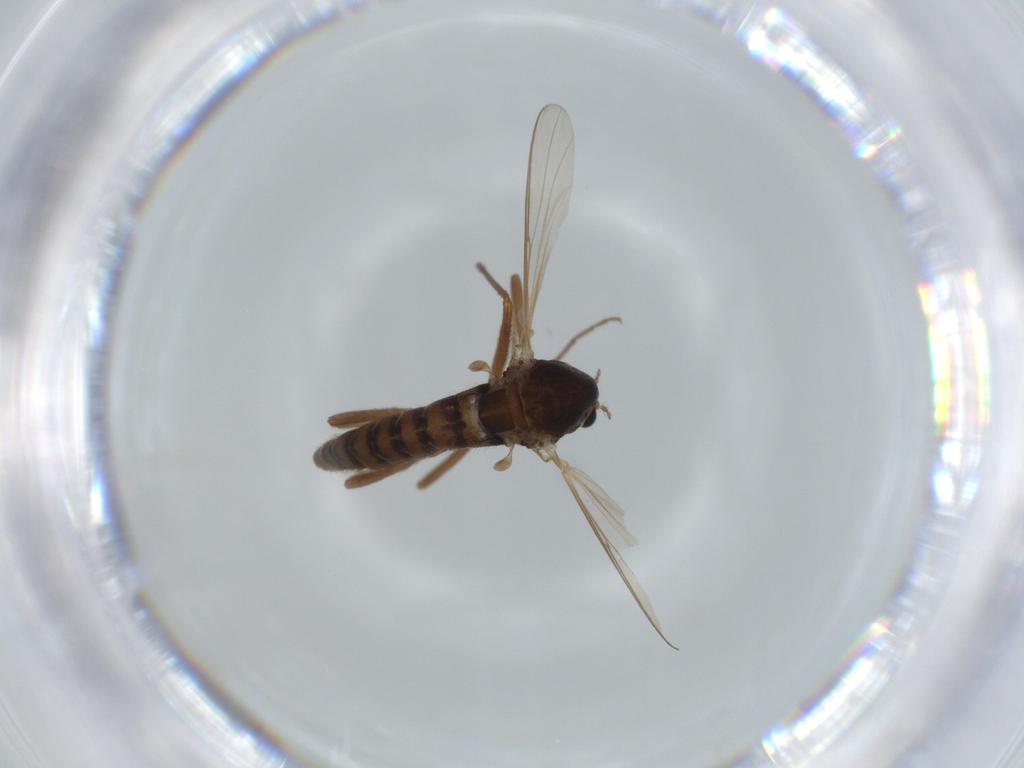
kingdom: Animalia
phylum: Arthropoda
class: Insecta
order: Diptera
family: Chironomidae
